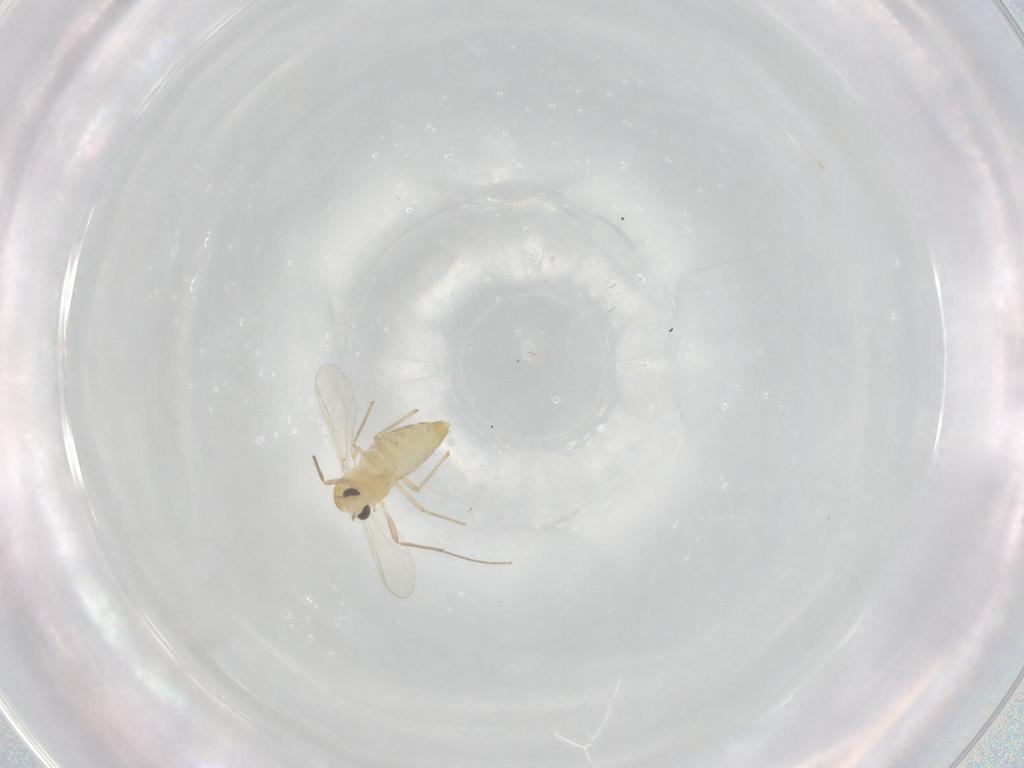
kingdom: Animalia
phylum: Arthropoda
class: Insecta
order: Diptera
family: Chironomidae
